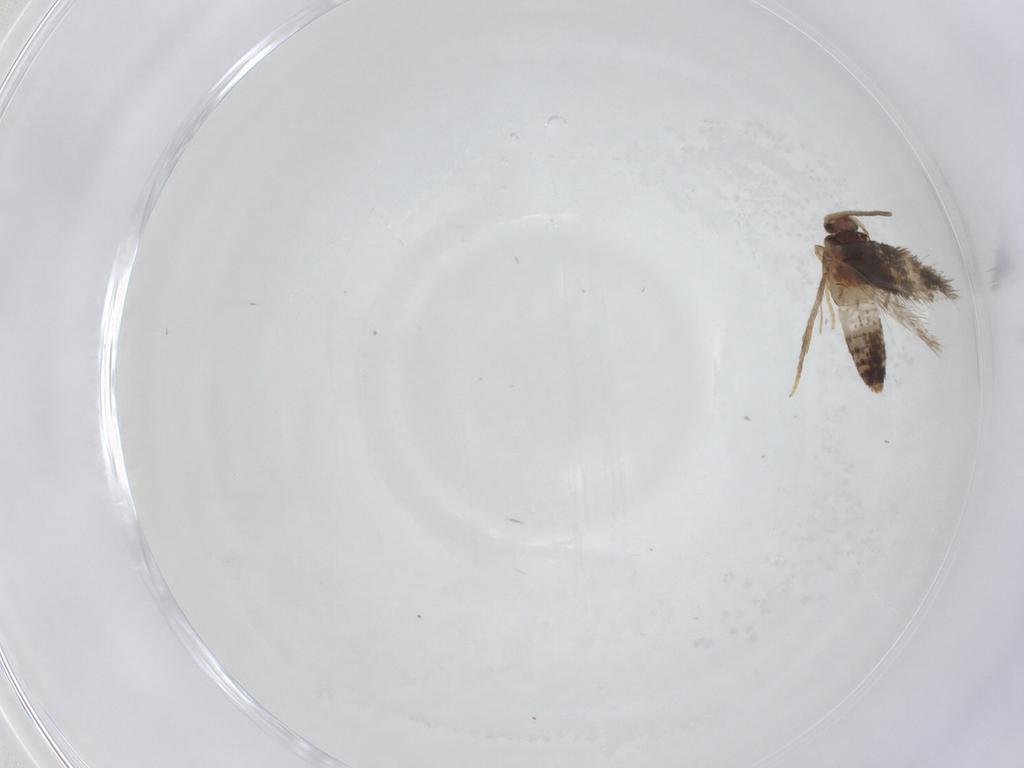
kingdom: Animalia
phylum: Arthropoda
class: Insecta
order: Lepidoptera
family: Nepticulidae
